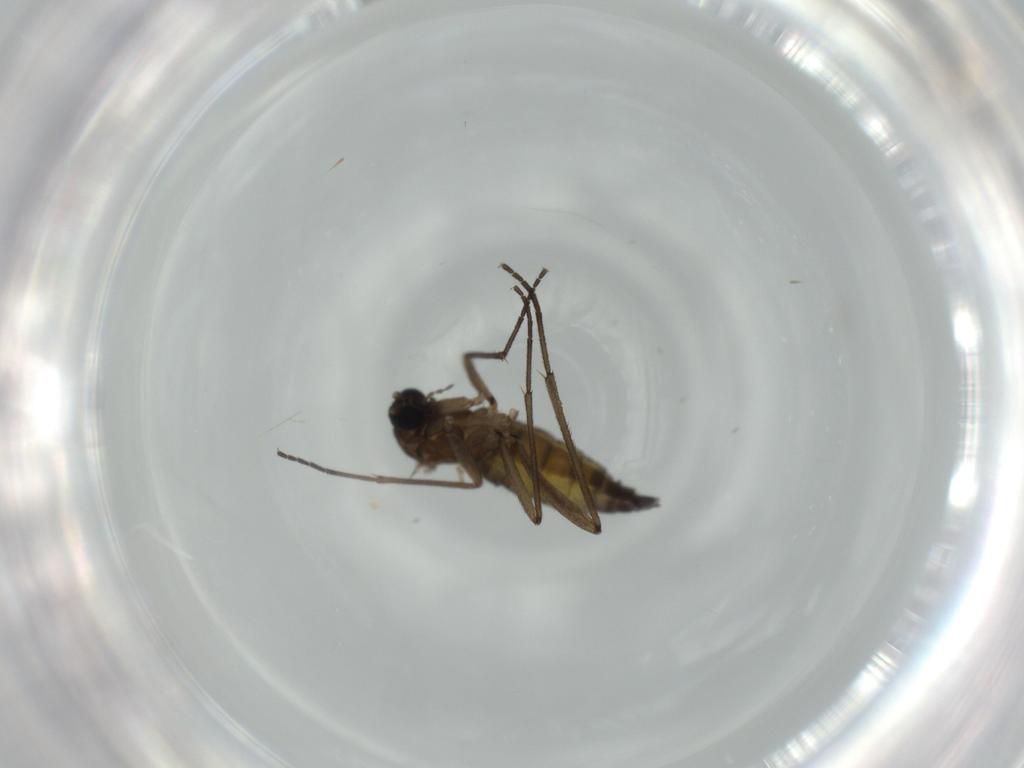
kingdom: Animalia
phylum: Arthropoda
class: Insecta
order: Diptera
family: Sciaridae
